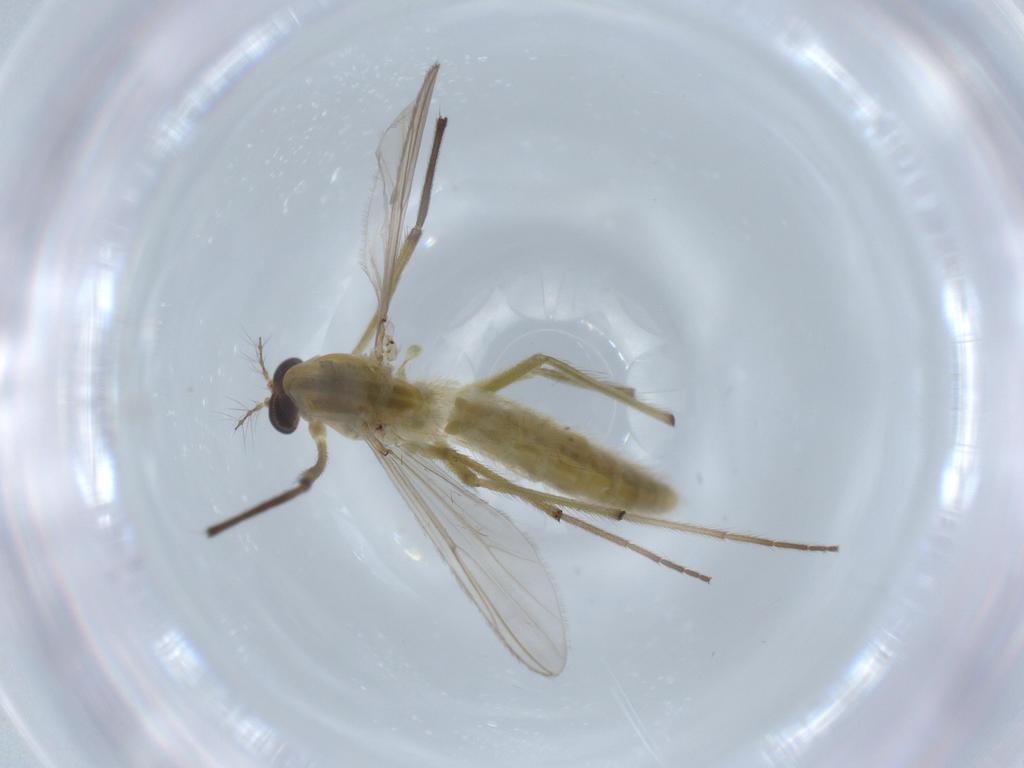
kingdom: Animalia
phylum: Arthropoda
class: Insecta
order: Diptera
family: Chironomidae
